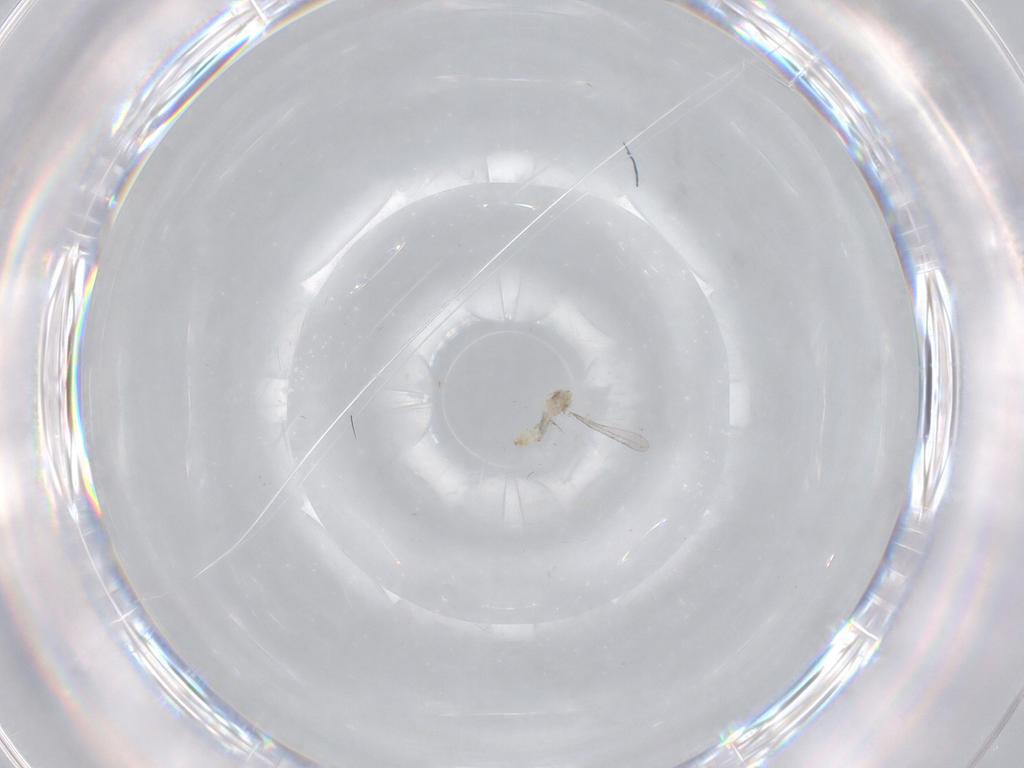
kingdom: Animalia
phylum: Arthropoda
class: Insecta
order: Diptera
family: Cecidomyiidae
